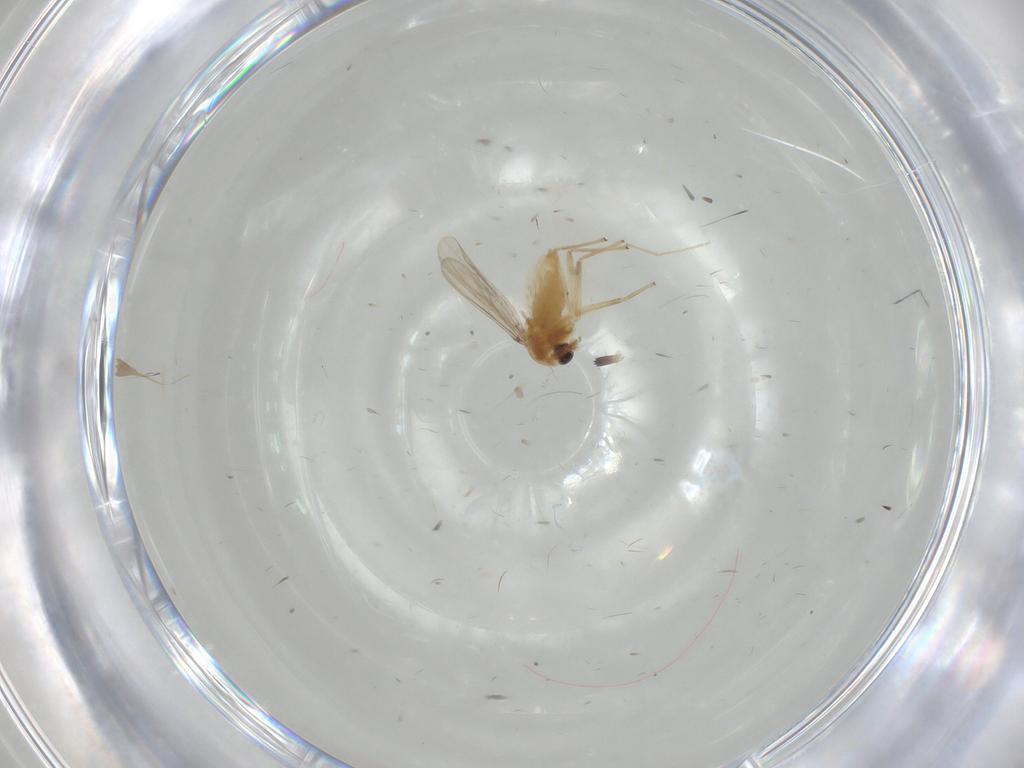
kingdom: Animalia
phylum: Arthropoda
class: Insecta
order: Diptera
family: Chironomidae
